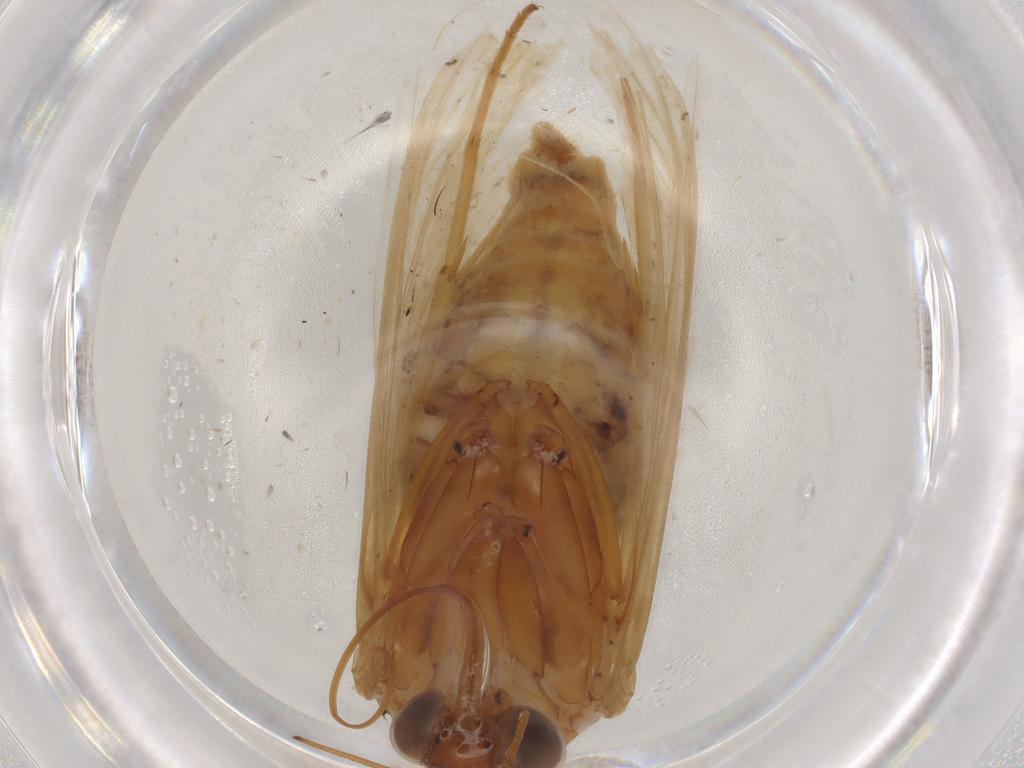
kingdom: Animalia
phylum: Arthropoda
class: Insecta
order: Lepidoptera
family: Crambidae
